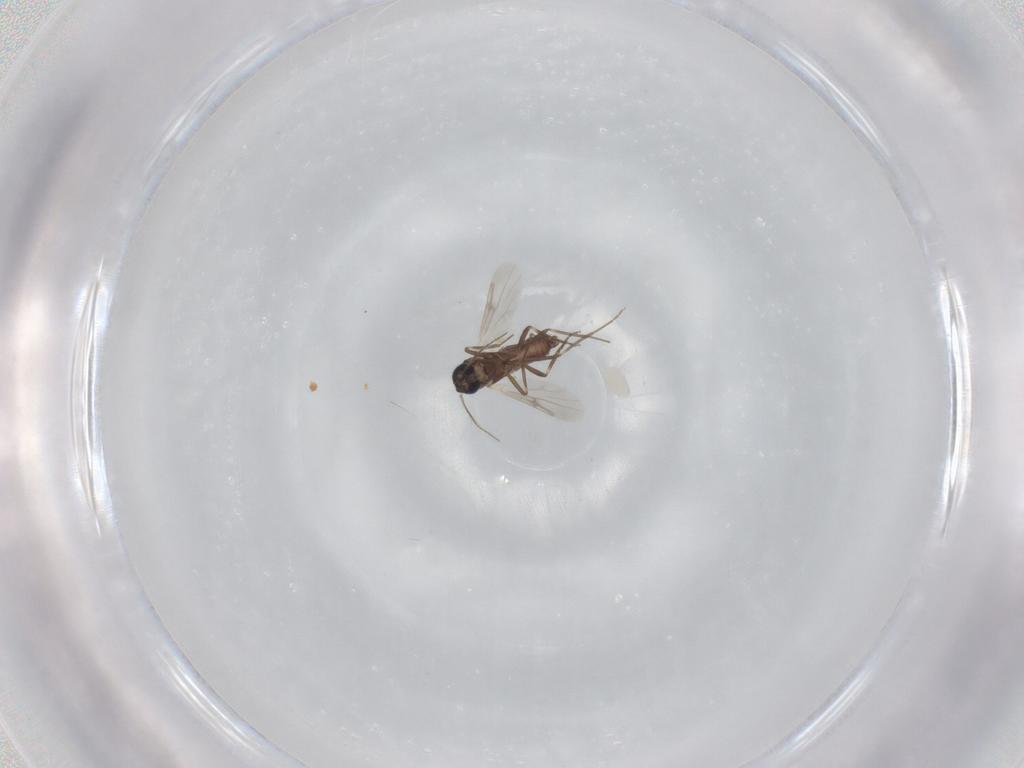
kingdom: Animalia
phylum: Arthropoda
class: Insecta
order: Diptera
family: Ceratopogonidae
